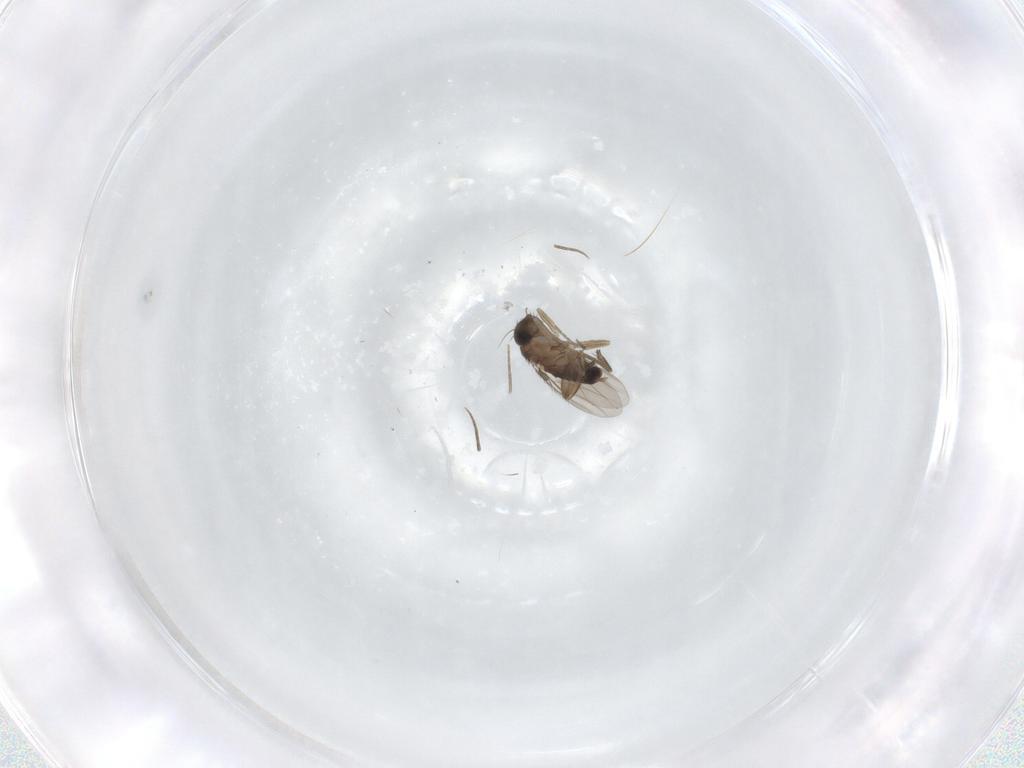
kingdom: Animalia
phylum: Arthropoda
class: Insecta
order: Diptera
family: Phoridae
